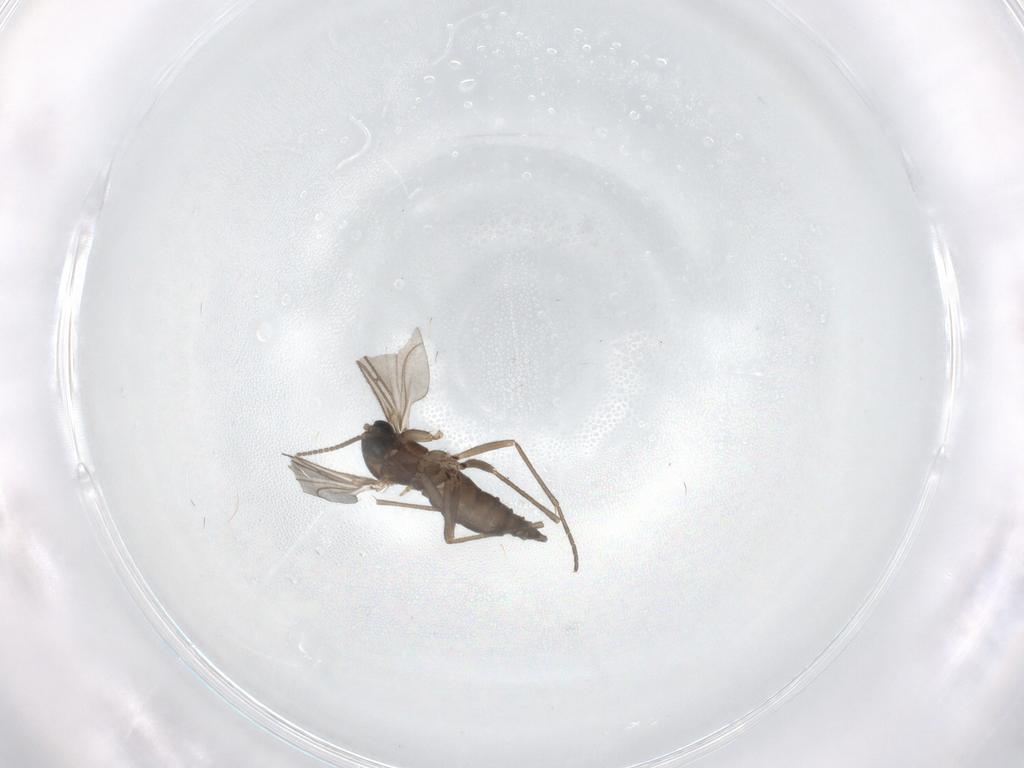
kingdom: Animalia
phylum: Arthropoda
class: Insecta
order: Diptera
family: Sciaridae
